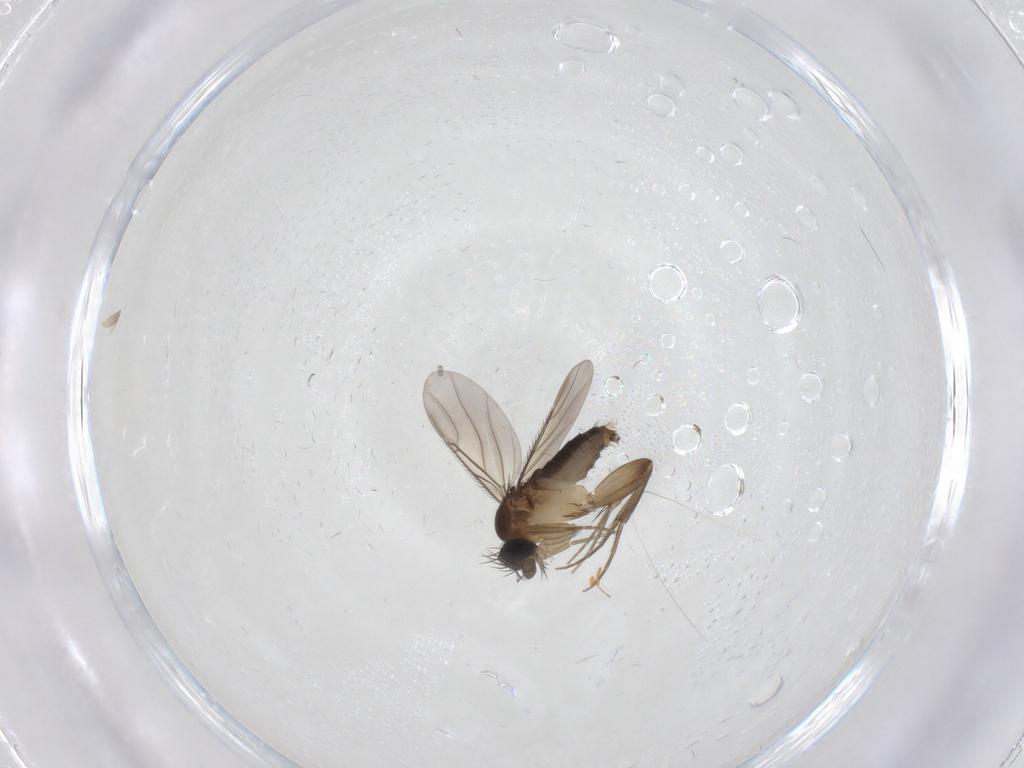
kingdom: Animalia
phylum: Arthropoda
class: Insecta
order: Diptera
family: Phoridae
